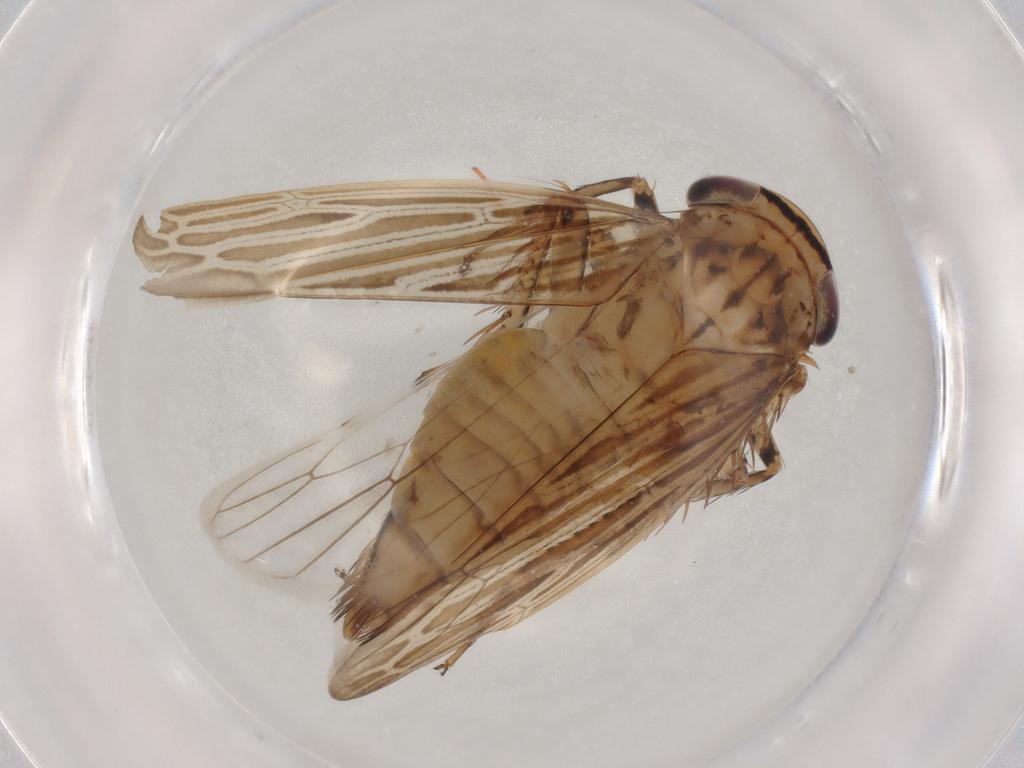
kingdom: Animalia
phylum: Arthropoda
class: Insecta
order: Hemiptera
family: Cicadellidae
